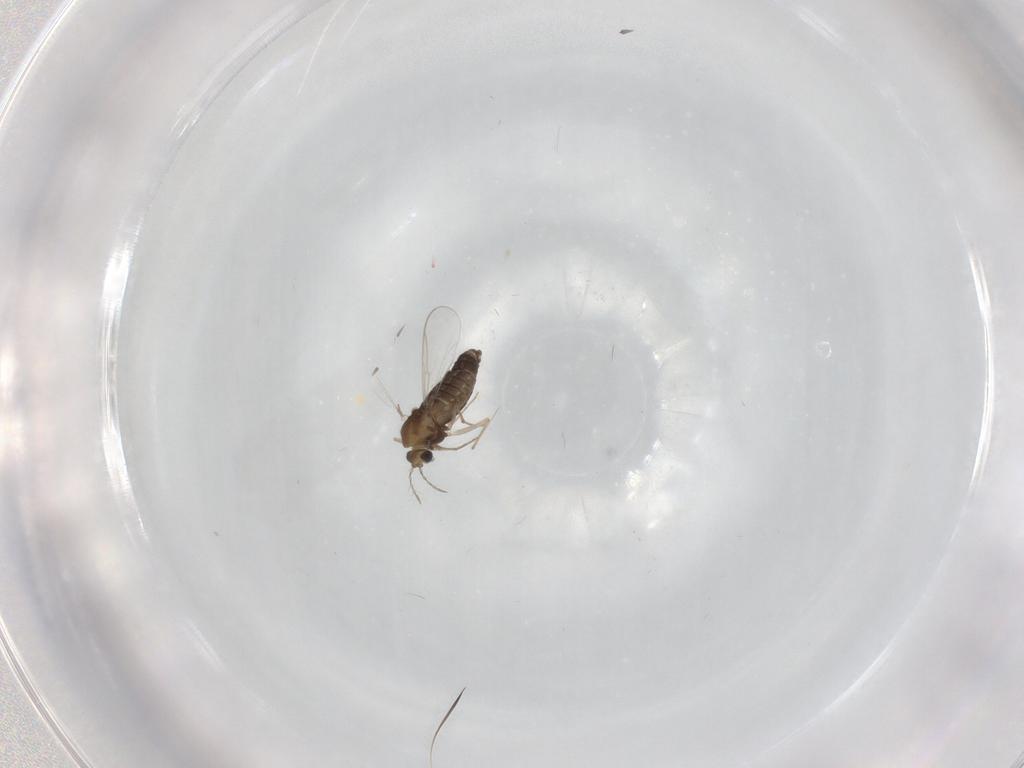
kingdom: Animalia
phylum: Arthropoda
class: Insecta
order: Diptera
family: Chironomidae
